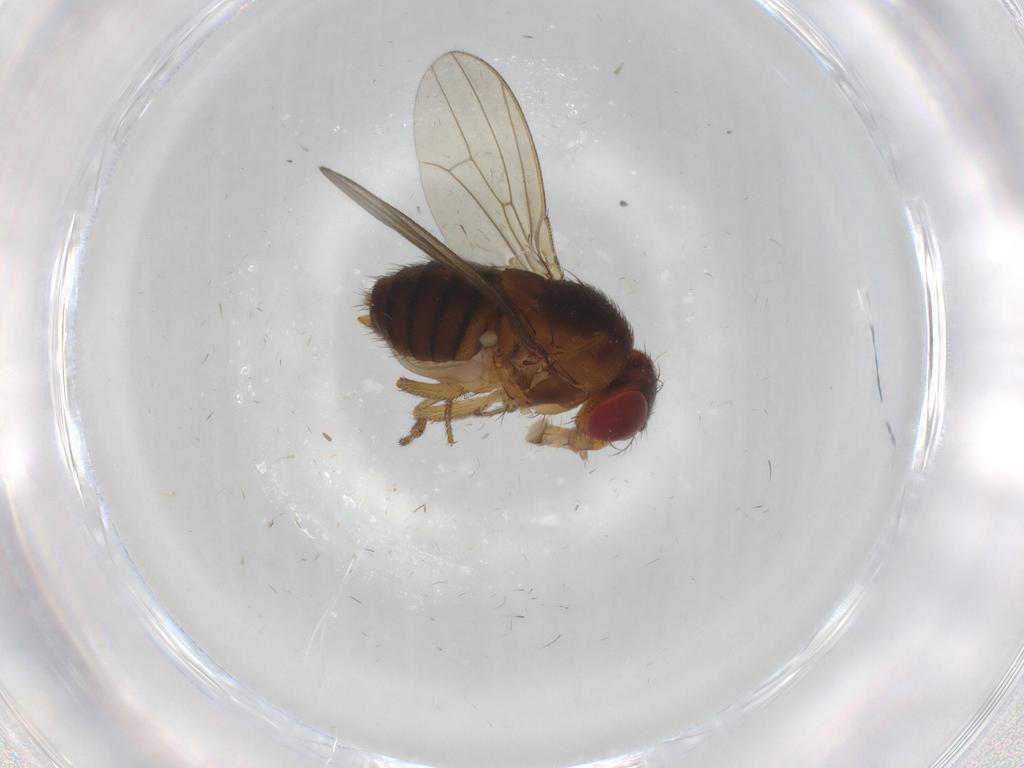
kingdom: Animalia
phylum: Arthropoda
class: Insecta
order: Diptera
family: Drosophilidae
